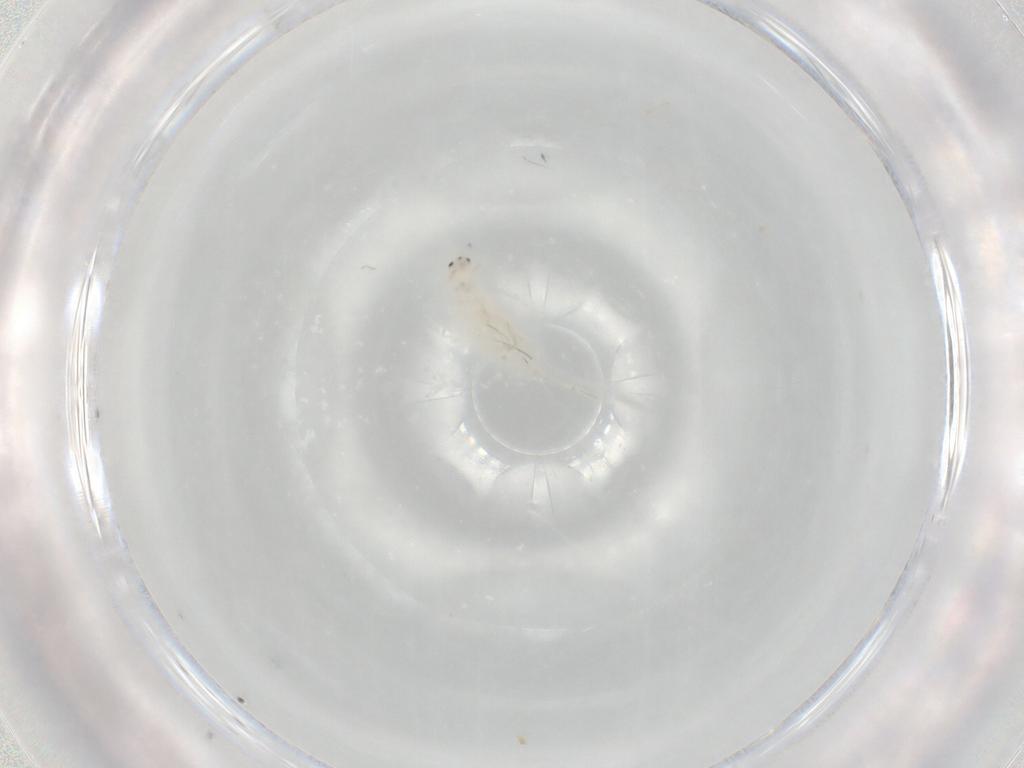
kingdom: Animalia
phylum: Arthropoda
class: Collembola
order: Entomobryomorpha
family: Entomobryidae
